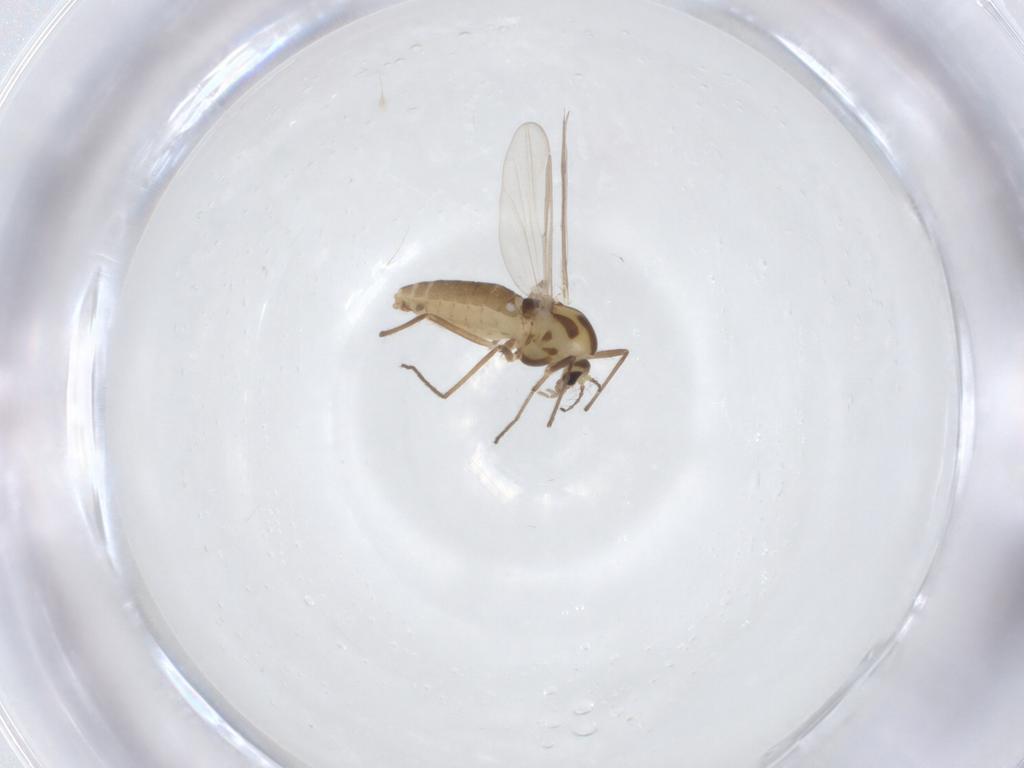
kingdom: Animalia
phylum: Arthropoda
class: Insecta
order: Diptera
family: Chironomidae
